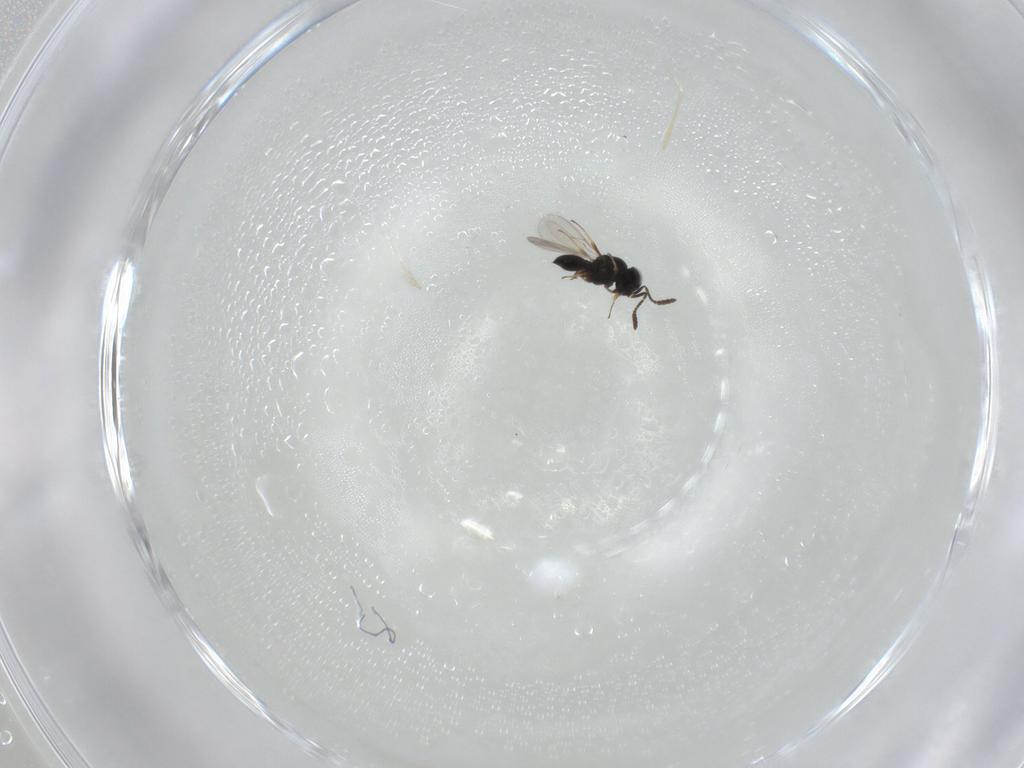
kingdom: Animalia
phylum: Arthropoda
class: Insecta
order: Hymenoptera
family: Scelionidae
